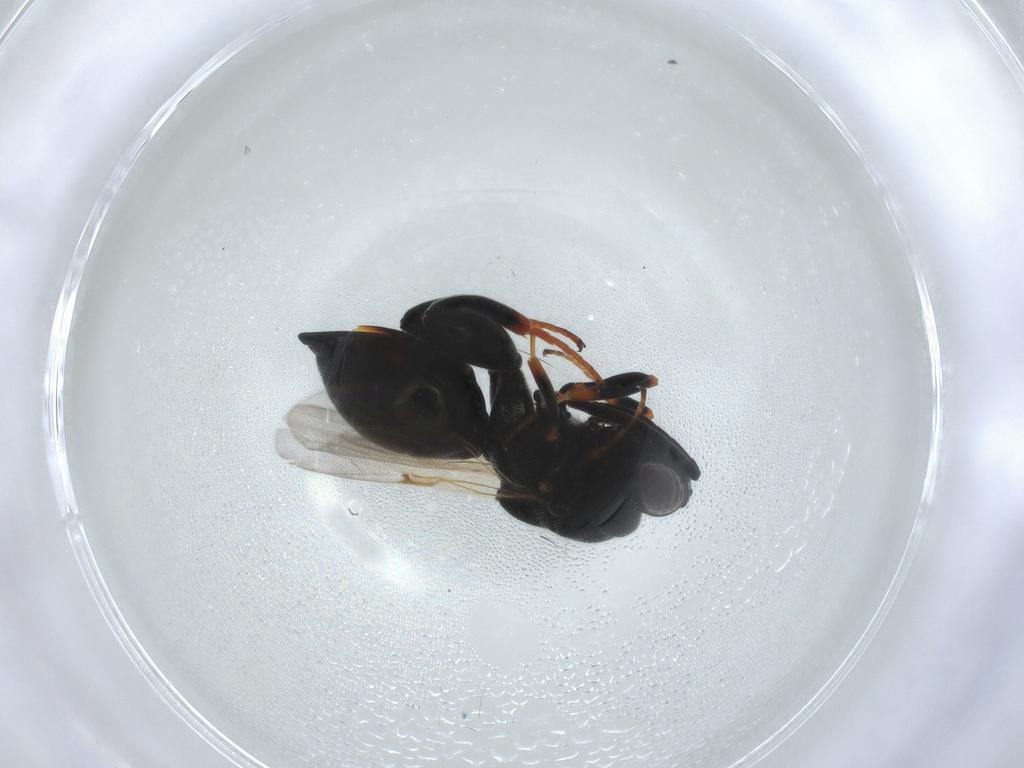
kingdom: Animalia
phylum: Arthropoda
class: Insecta
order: Hymenoptera
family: Chalcididae
